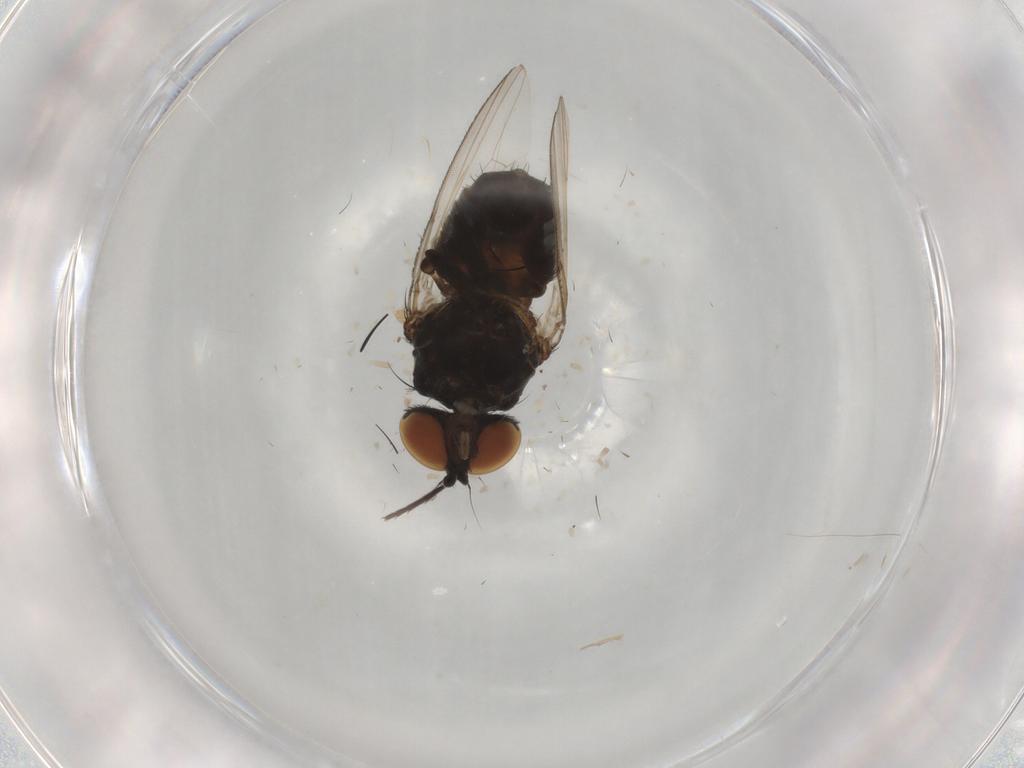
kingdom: Animalia
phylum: Arthropoda
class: Insecta
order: Diptera
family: Milichiidae
